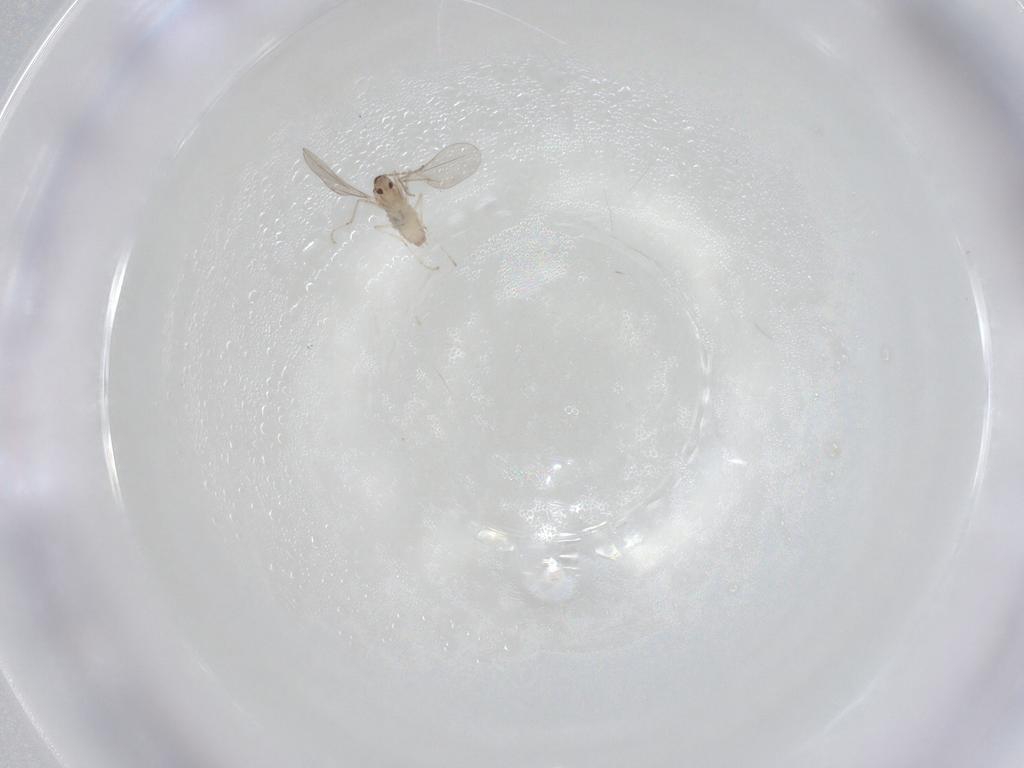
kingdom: Animalia
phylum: Arthropoda
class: Insecta
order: Diptera
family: Cecidomyiidae
